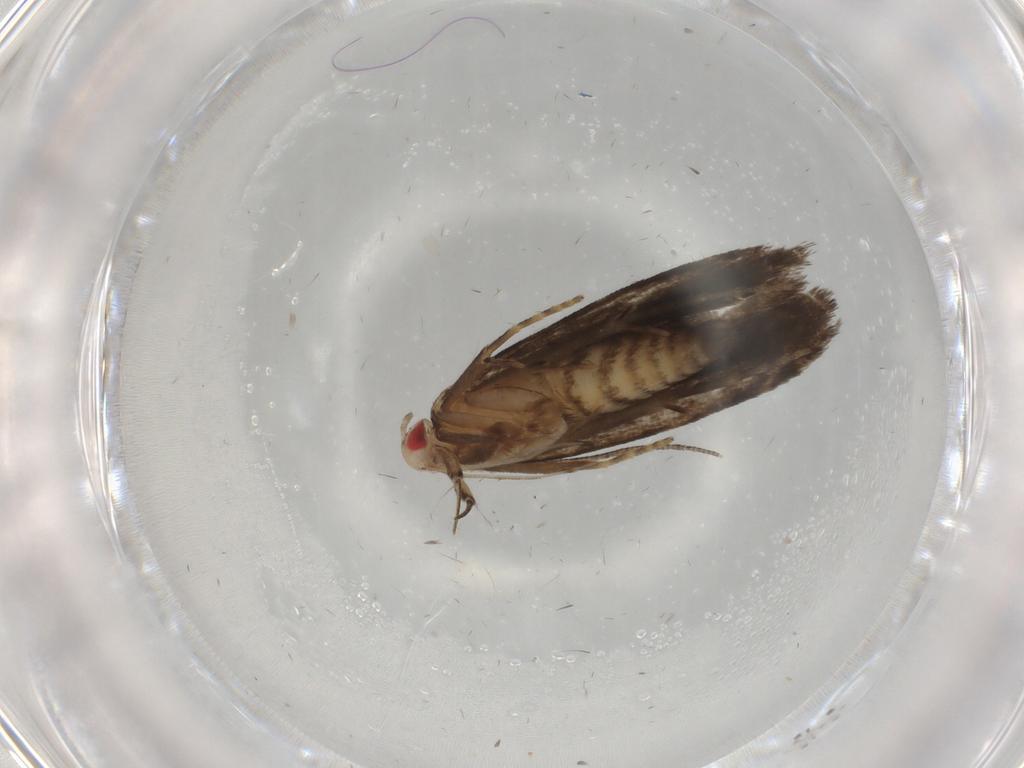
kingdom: Animalia
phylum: Arthropoda
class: Insecta
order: Lepidoptera
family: Gelechiidae
